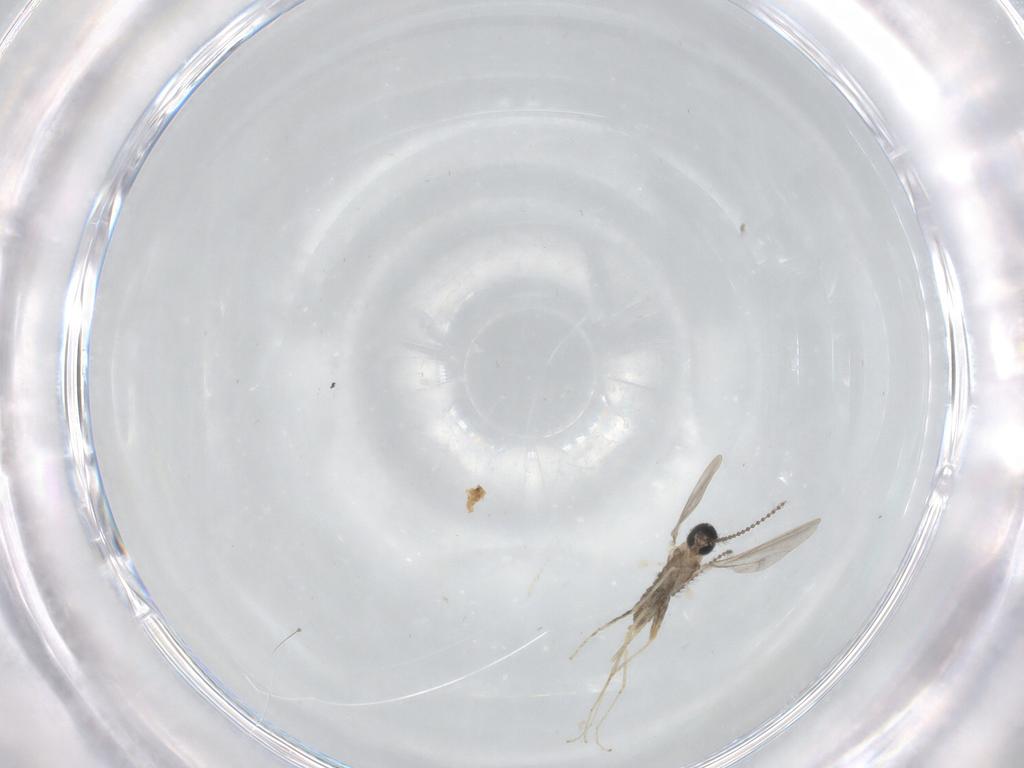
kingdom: Animalia
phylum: Arthropoda
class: Insecta
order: Diptera
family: Cecidomyiidae
